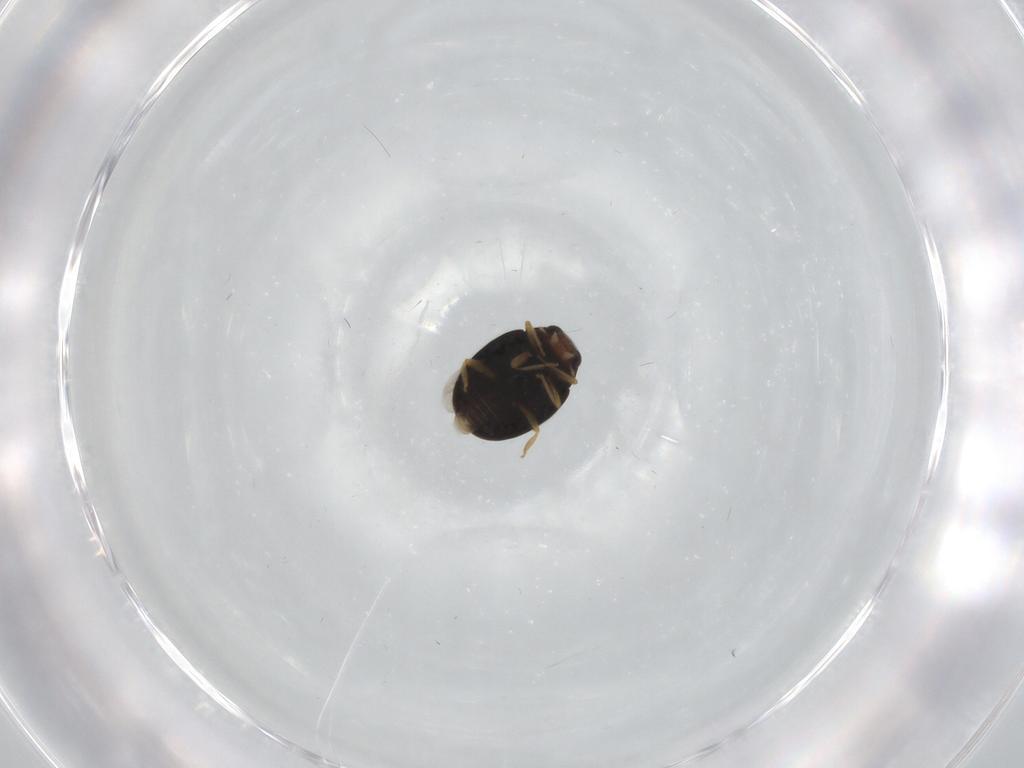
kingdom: Animalia
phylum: Arthropoda
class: Insecta
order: Coleoptera
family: Coccinellidae
